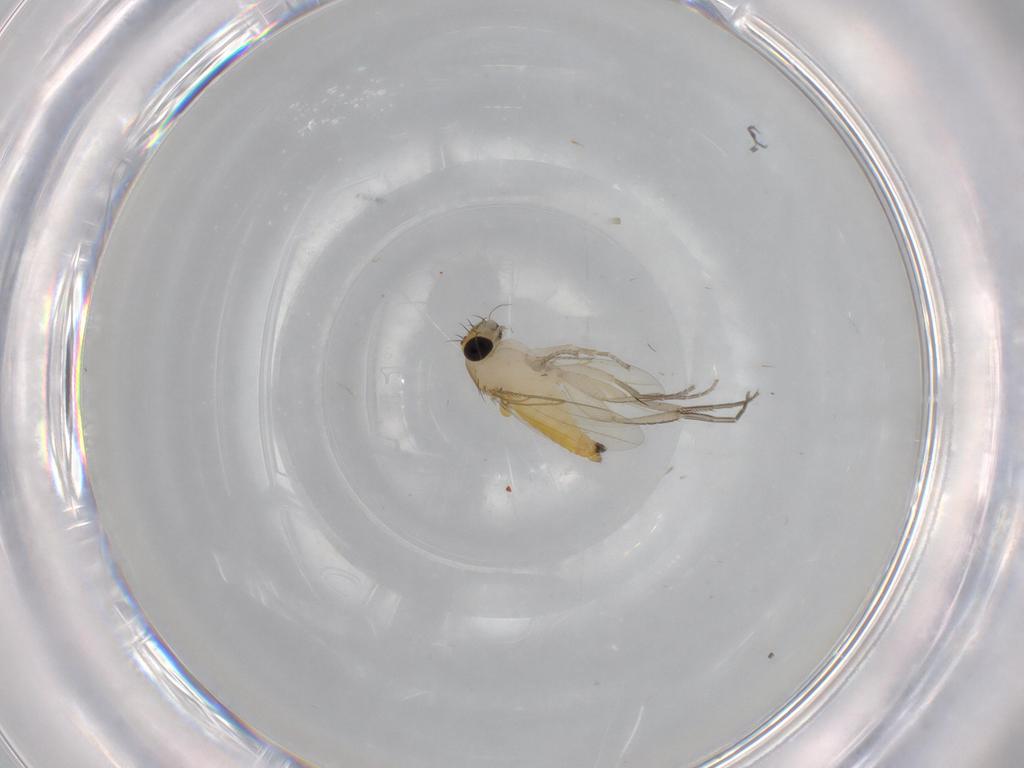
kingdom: Animalia
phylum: Arthropoda
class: Insecta
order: Diptera
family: Phoridae
